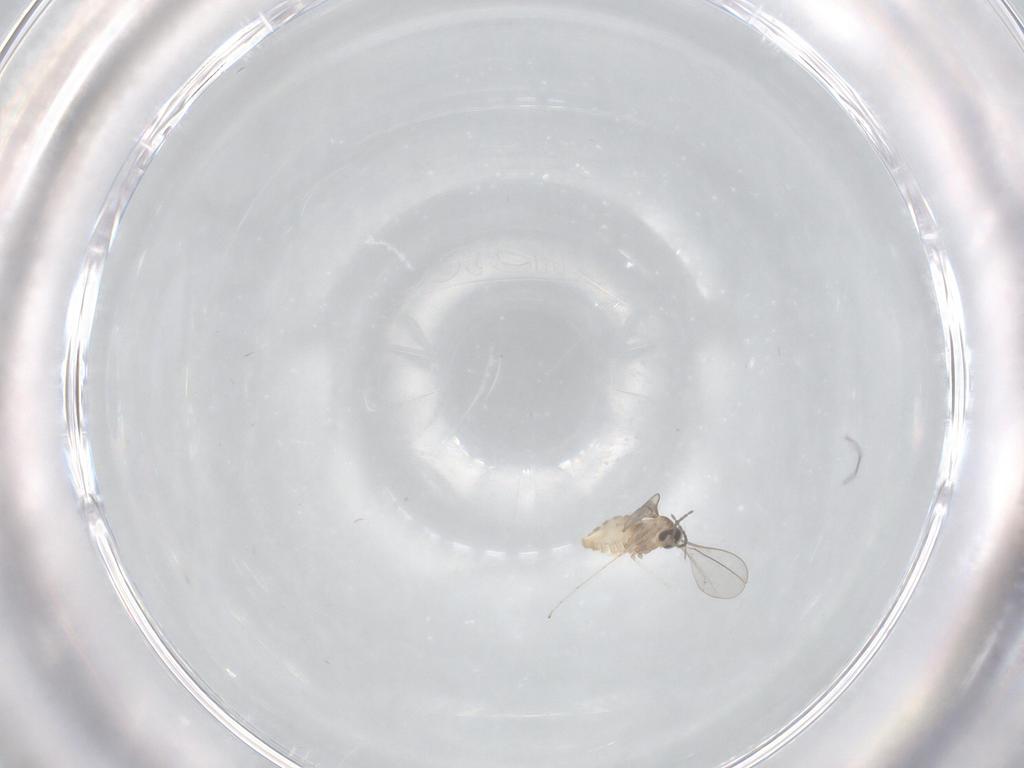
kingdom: Animalia
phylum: Arthropoda
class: Insecta
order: Diptera
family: Cecidomyiidae
